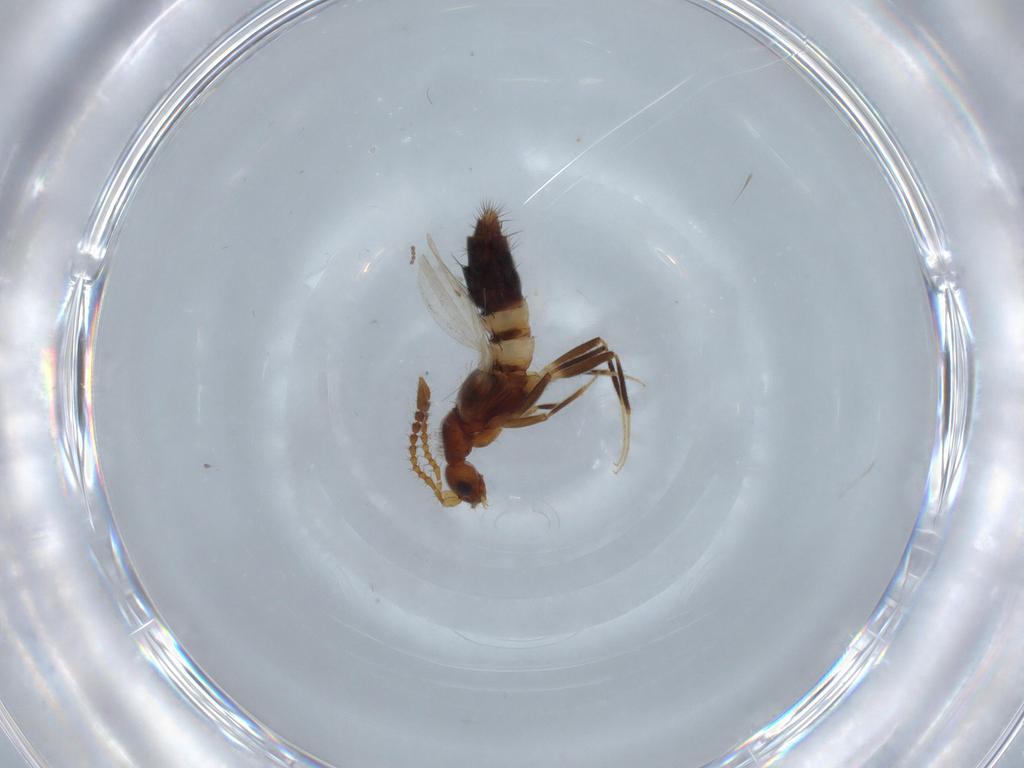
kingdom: Animalia
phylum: Arthropoda
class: Insecta
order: Coleoptera
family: Staphylinidae
